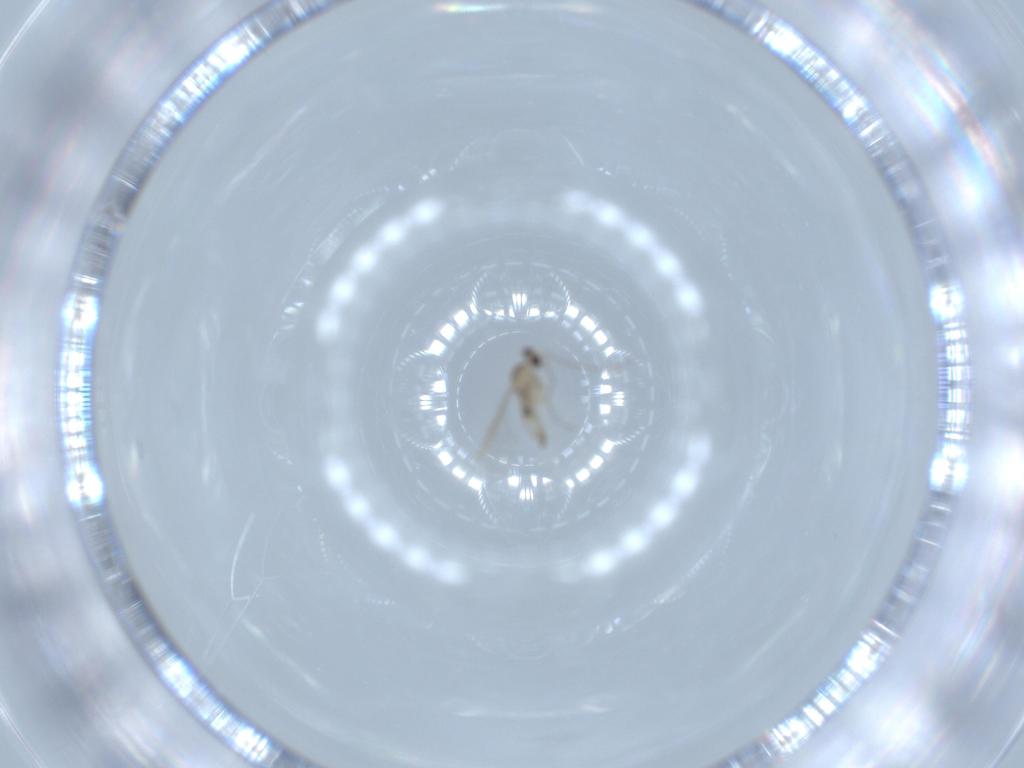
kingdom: Animalia
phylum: Arthropoda
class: Insecta
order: Diptera
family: Cecidomyiidae
